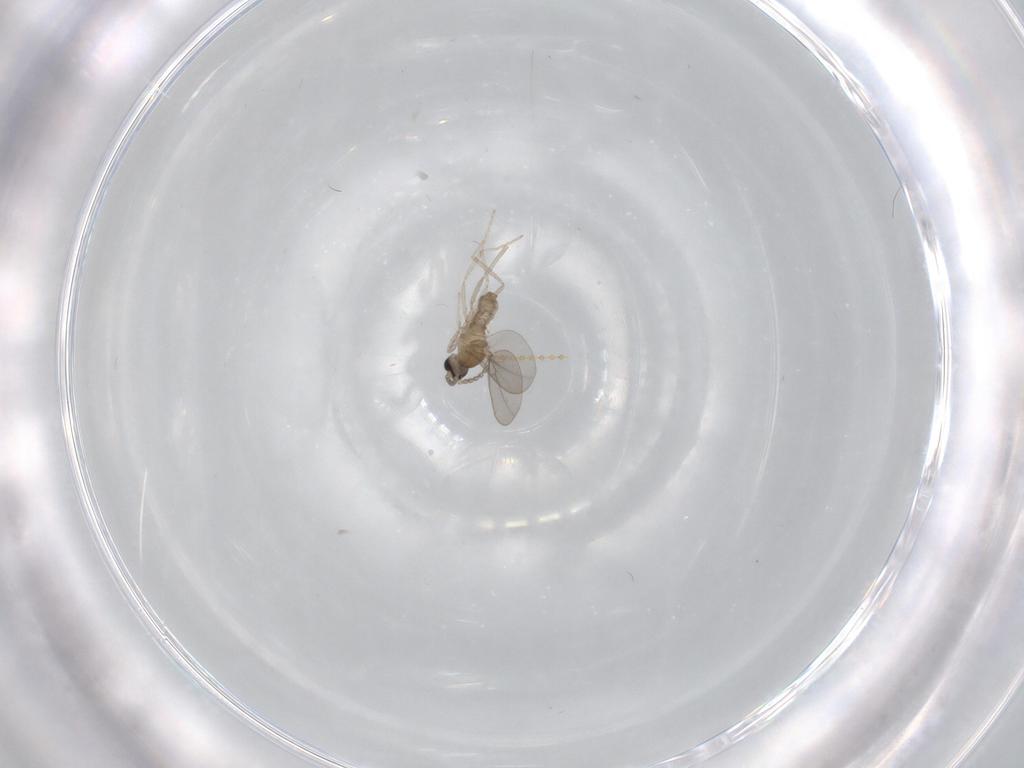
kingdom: Animalia
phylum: Arthropoda
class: Insecta
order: Diptera
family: Cecidomyiidae
